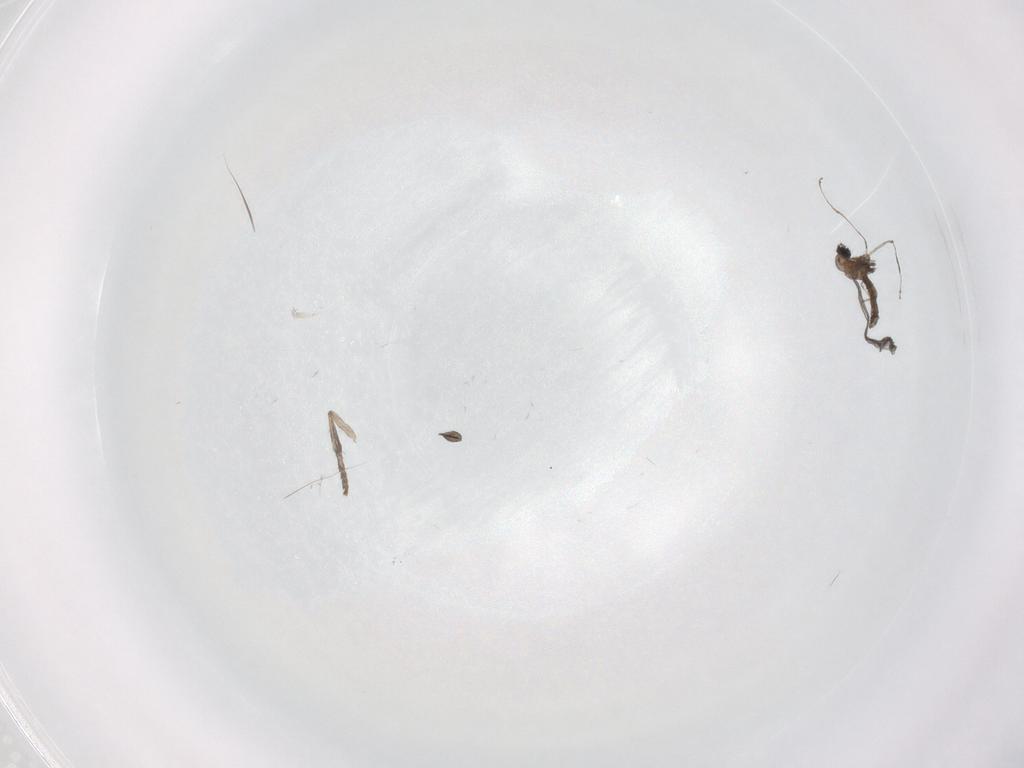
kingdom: Animalia
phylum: Arthropoda
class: Insecta
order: Diptera
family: Sciaridae
